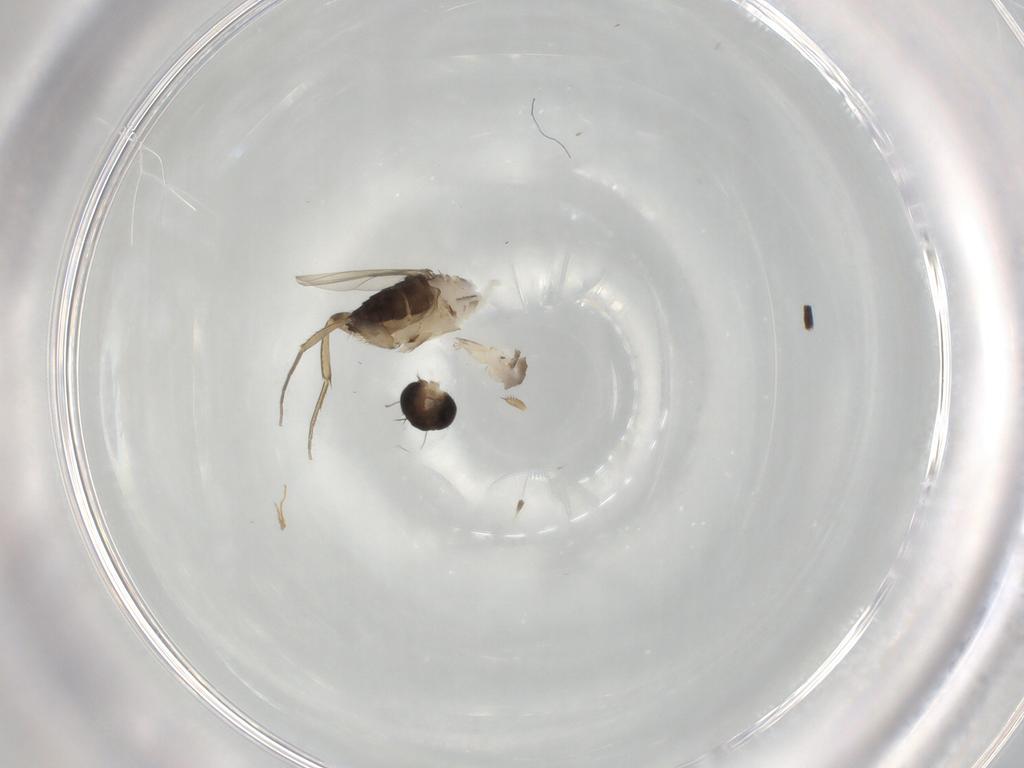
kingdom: Animalia
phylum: Arthropoda
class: Insecta
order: Diptera
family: Phoridae
